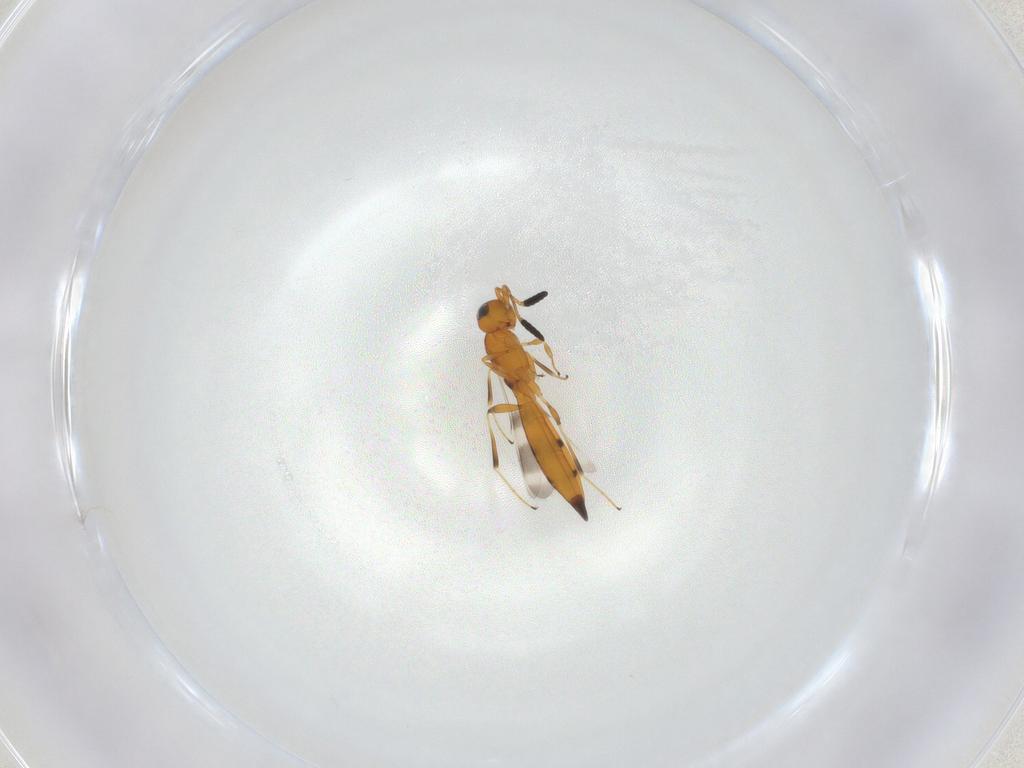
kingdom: Animalia
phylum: Arthropoda
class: Insecta
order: Hymenoptera
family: Scelionidae
